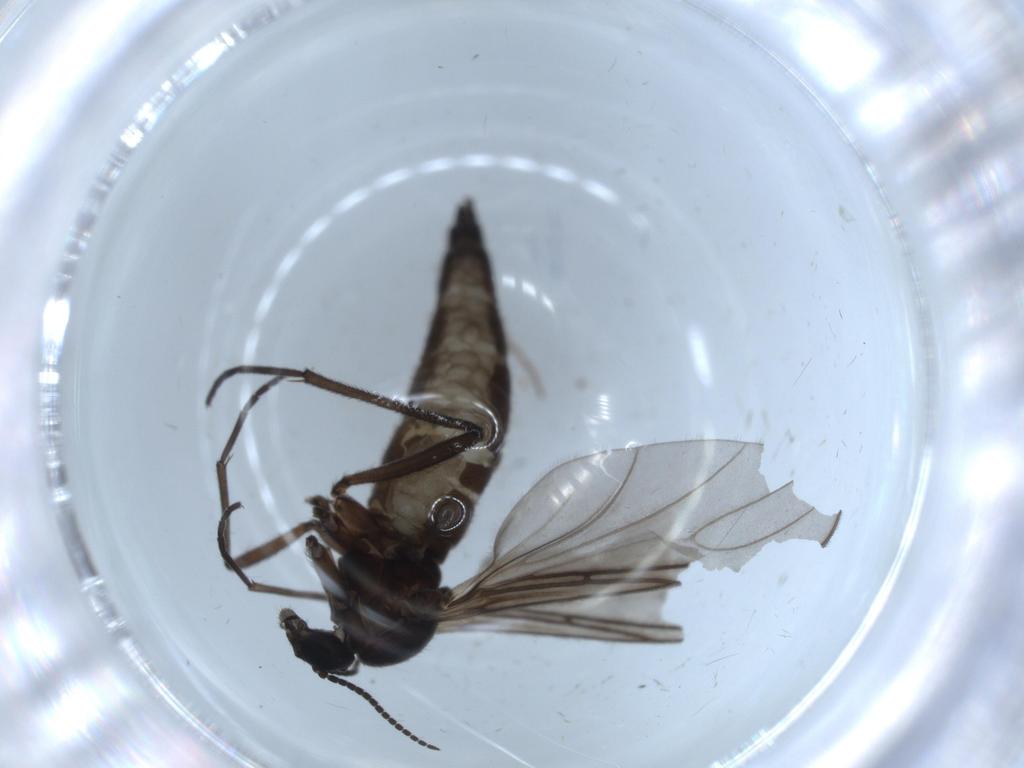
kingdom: Animalia
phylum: Arthropoda
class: Insecta
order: Diptera
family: Sciaridae
